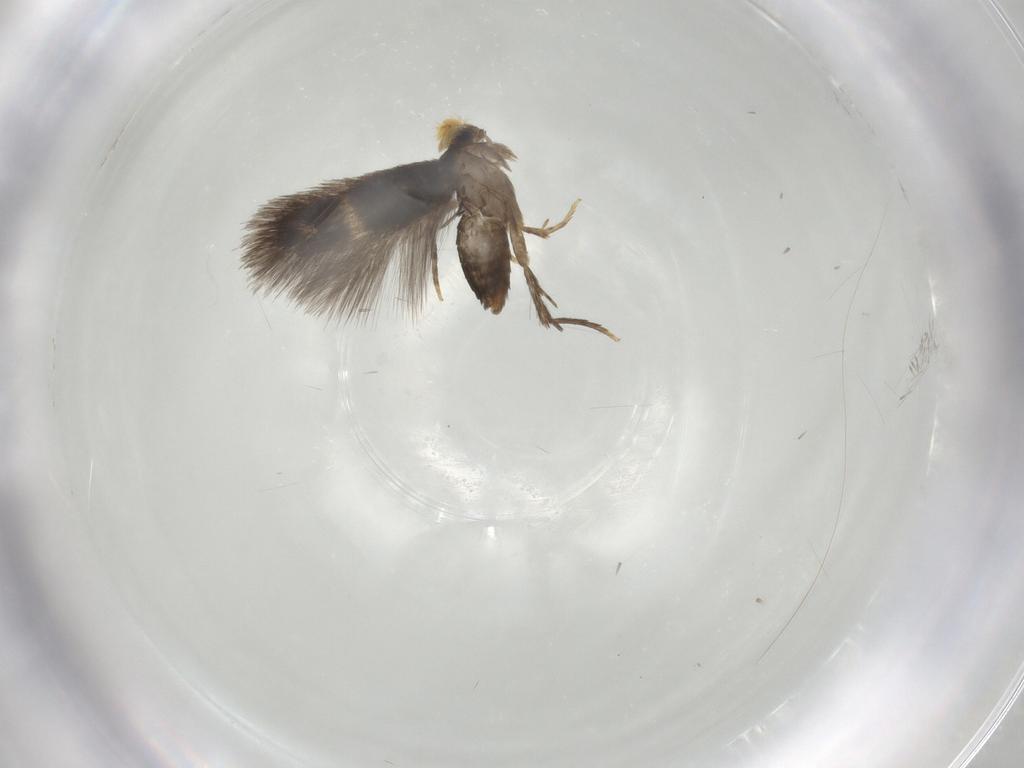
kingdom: Animalia
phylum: Arthropoda
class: Insecta
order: Lepidoptera
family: Nepticulidae
